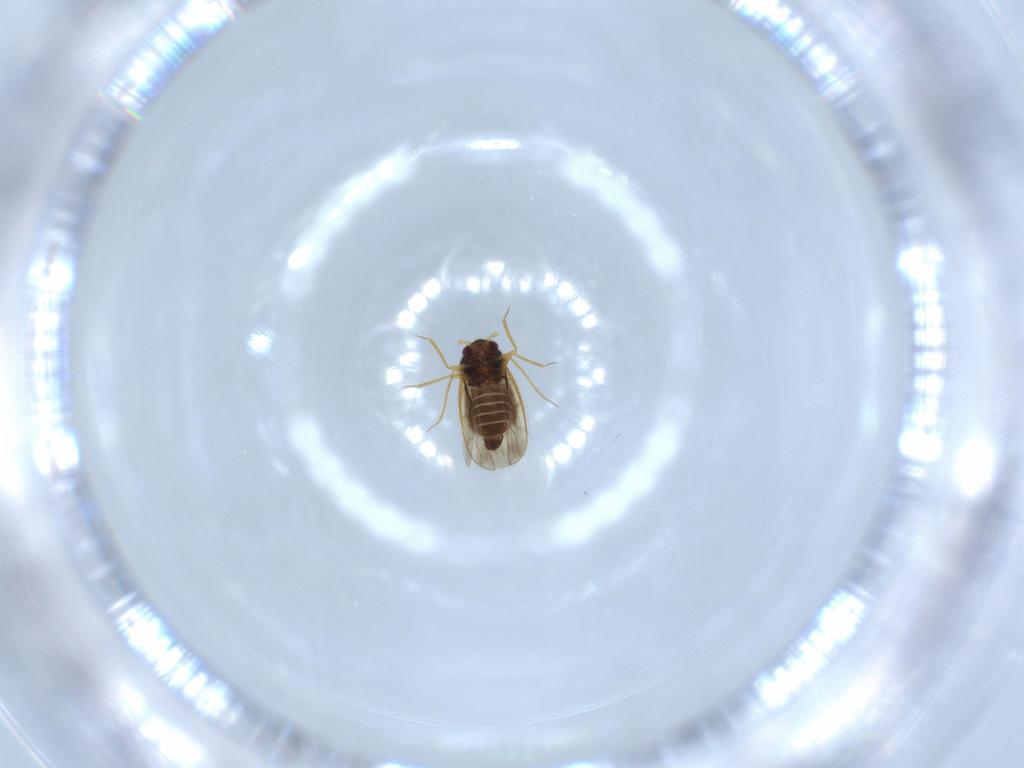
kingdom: Animalia
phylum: Arthropoda
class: Insecta
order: Hemiptera
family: Schizopteridae
